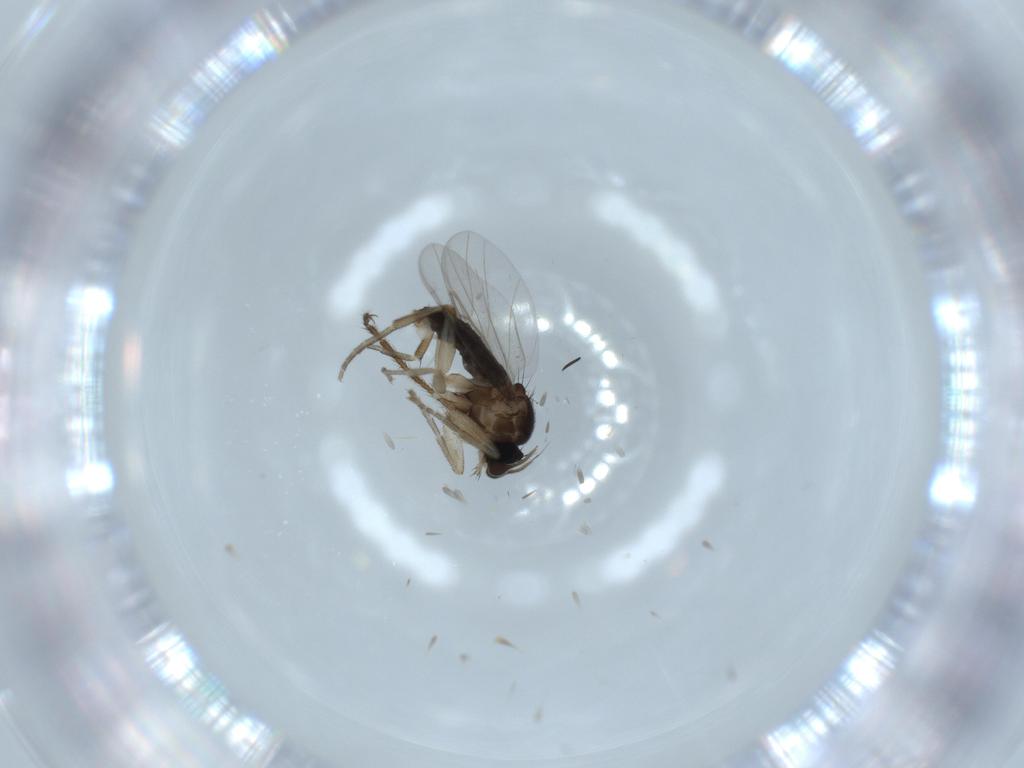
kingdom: Animalia
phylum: Arthropoda
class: Insecta
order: Diptera
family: Phoridae
